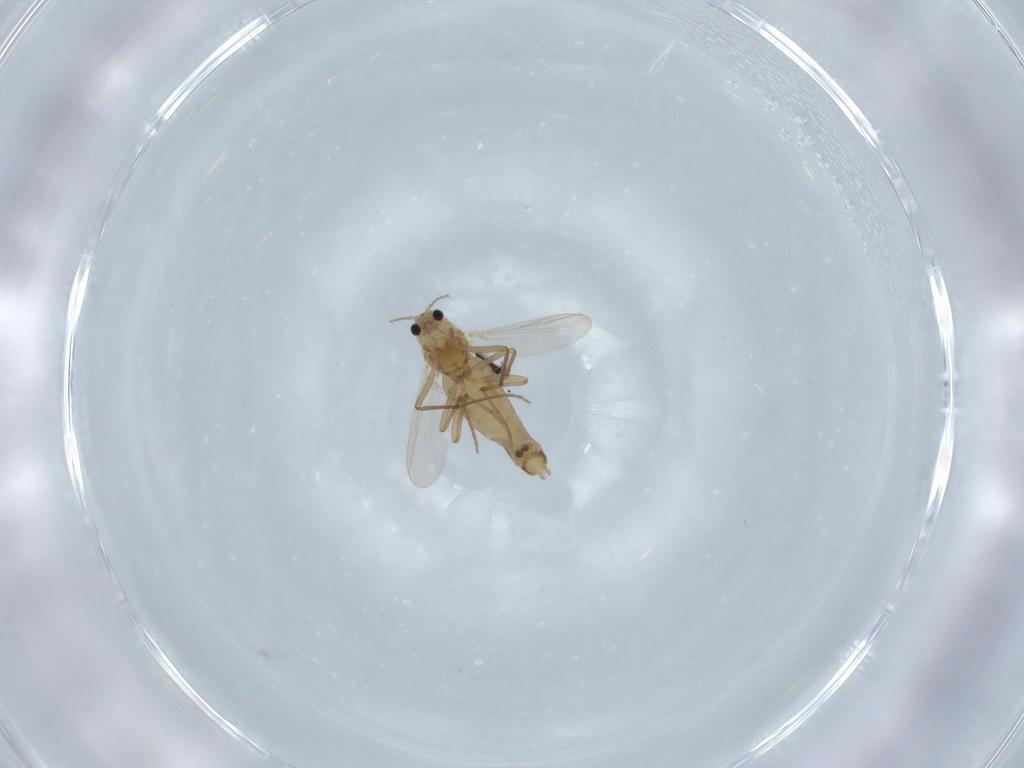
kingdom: Animalia
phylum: Arthropoda
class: Insecta
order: Diptera
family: Chironomidae
